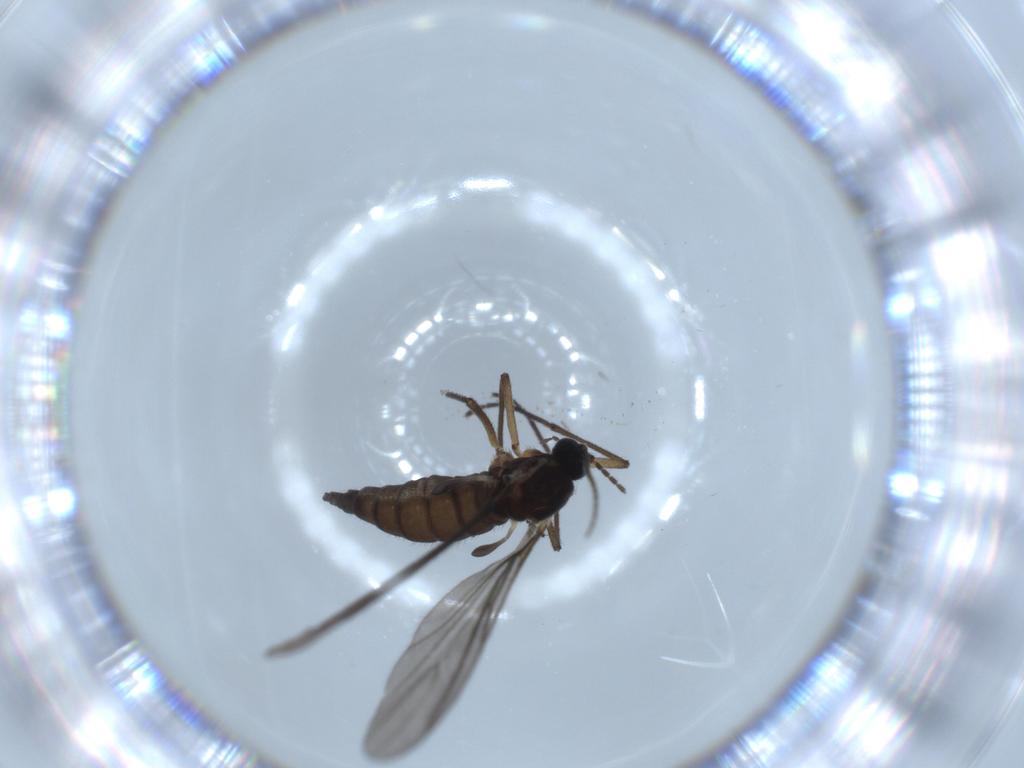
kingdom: Animalia
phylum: Arthropoda
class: Insecta
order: Diptera
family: Sciaridae
